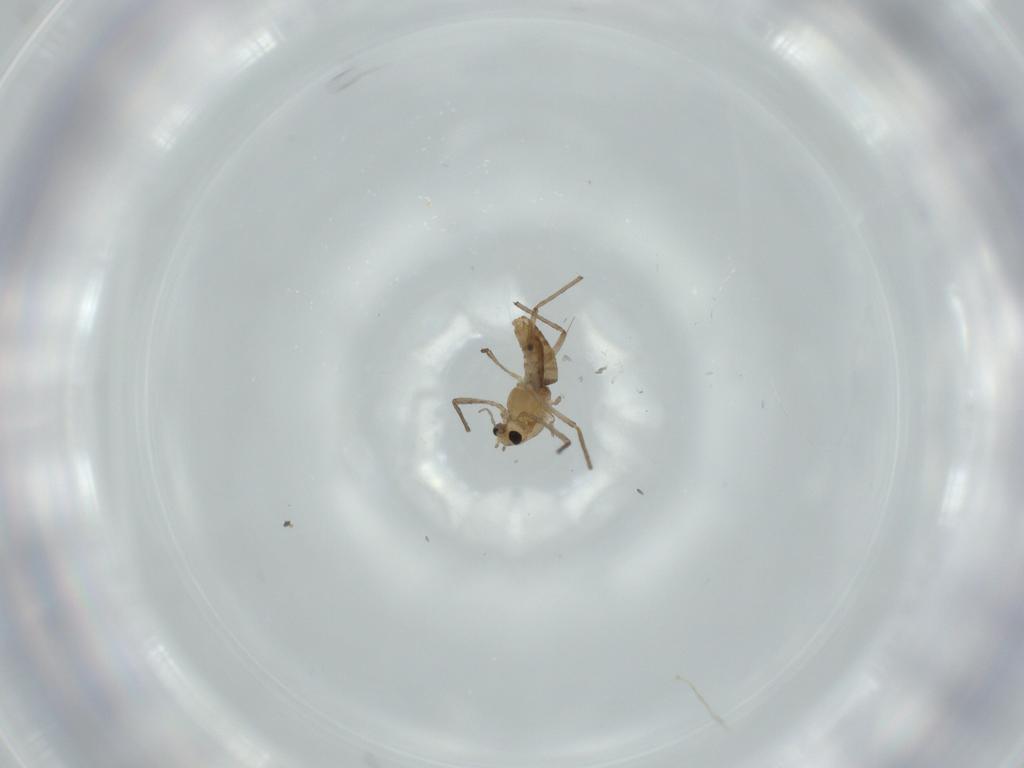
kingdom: Animalia
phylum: Arthropoda
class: Insecta
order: Diptera
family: Chironomidae
